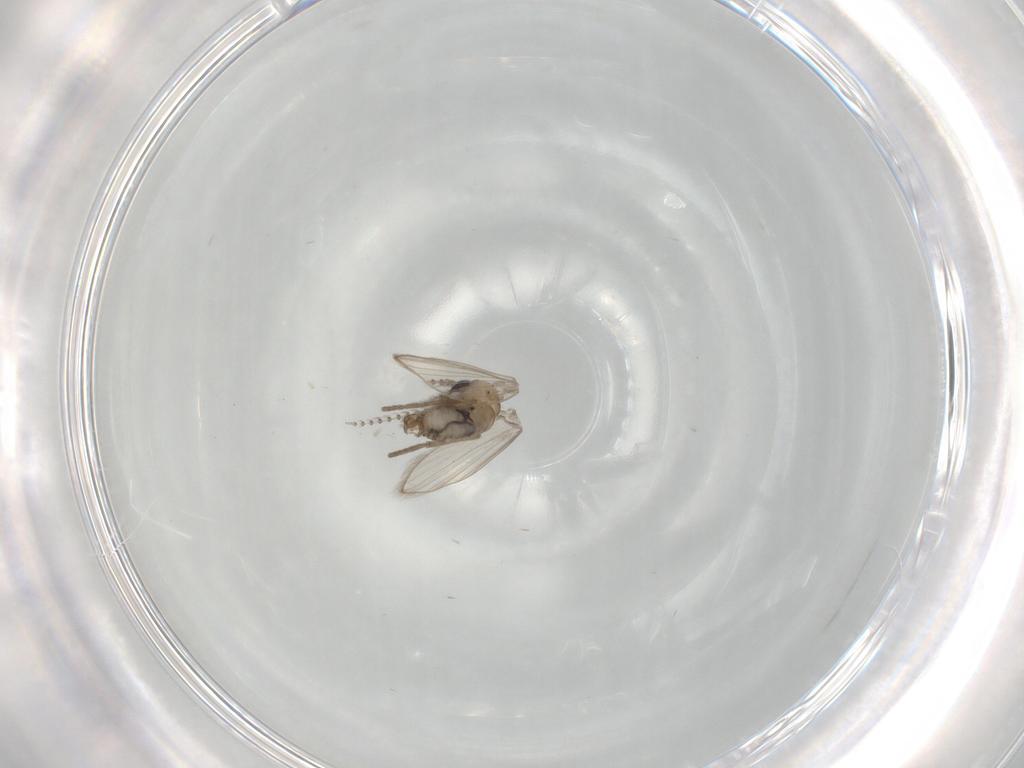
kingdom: Animalia
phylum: Arthropoda
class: Insecta
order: Diptera
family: Psychodidae
